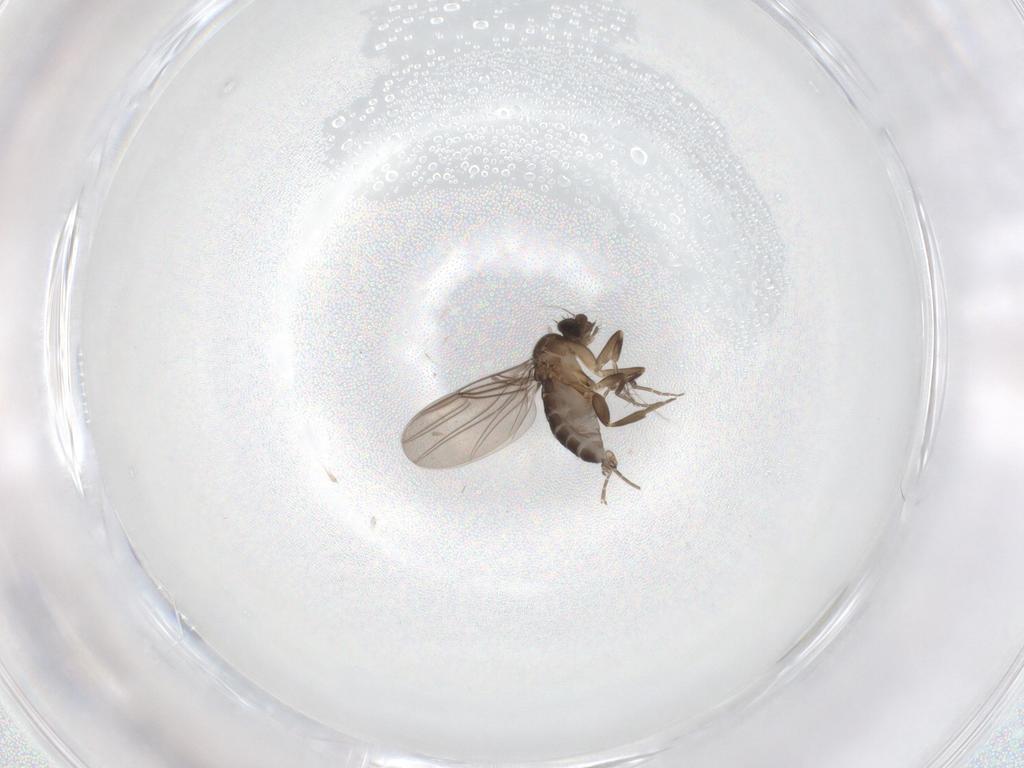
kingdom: Animalia
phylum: Arthropoda
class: Insecta
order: Diptera
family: Phoridae
